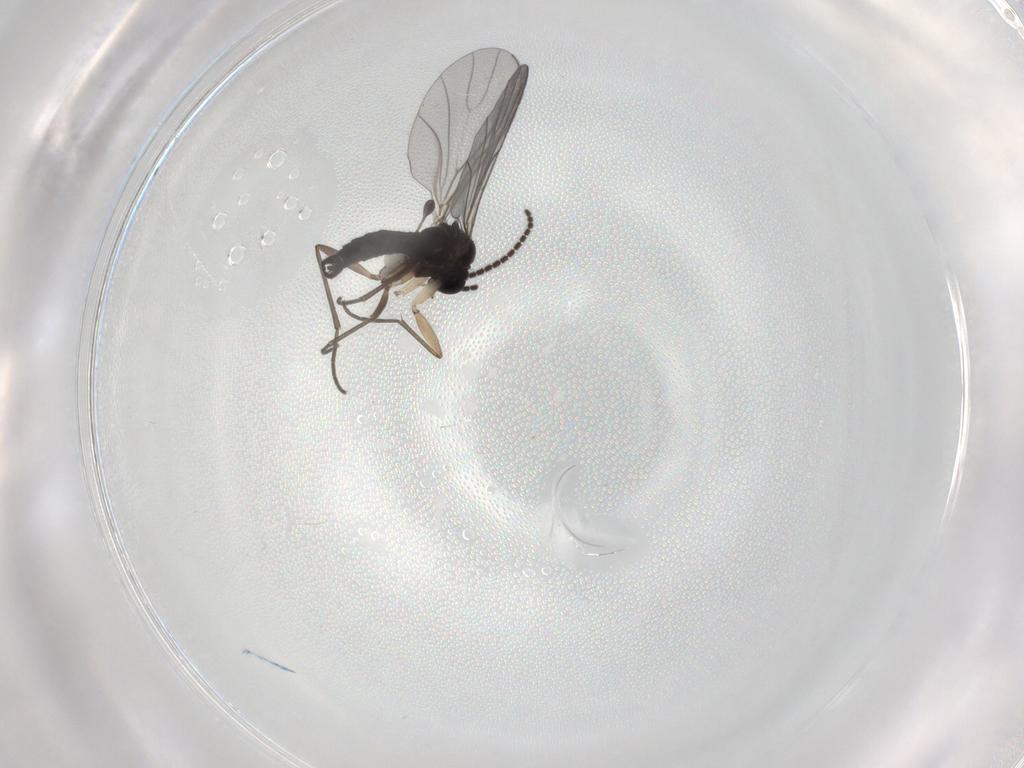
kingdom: Animalia
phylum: Arthropoda
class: Insecta
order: Diptera
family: Sciaridae
